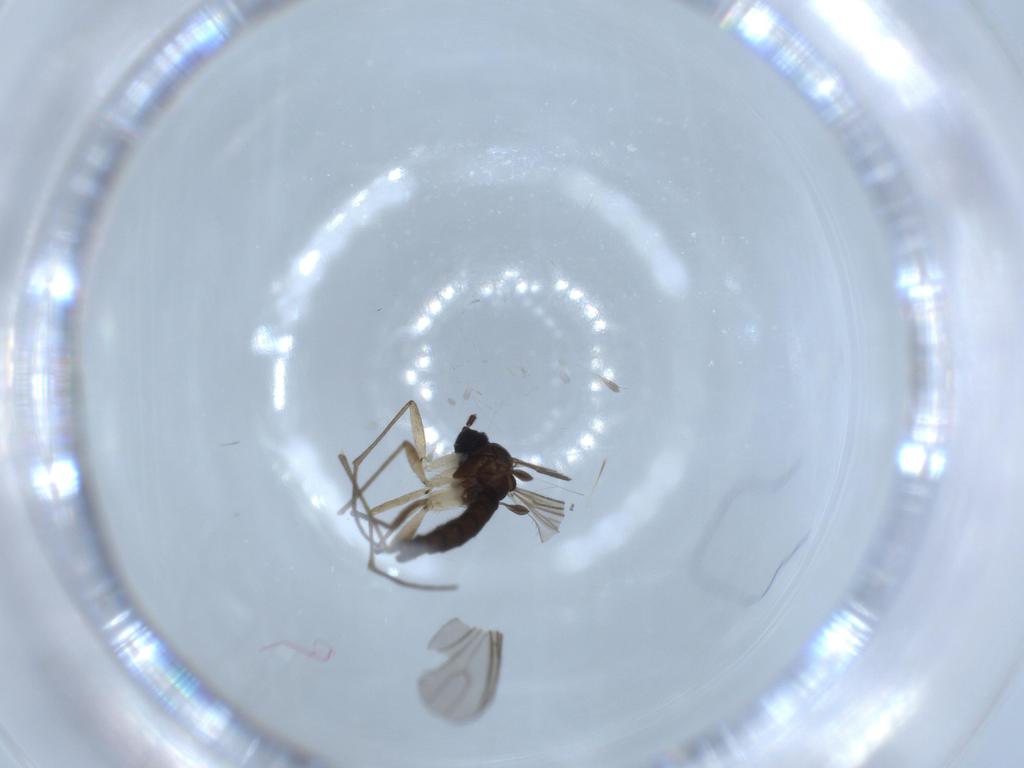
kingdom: Animalia
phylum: Arthropoda
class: Insecta
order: Diptera
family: Sciaridae
